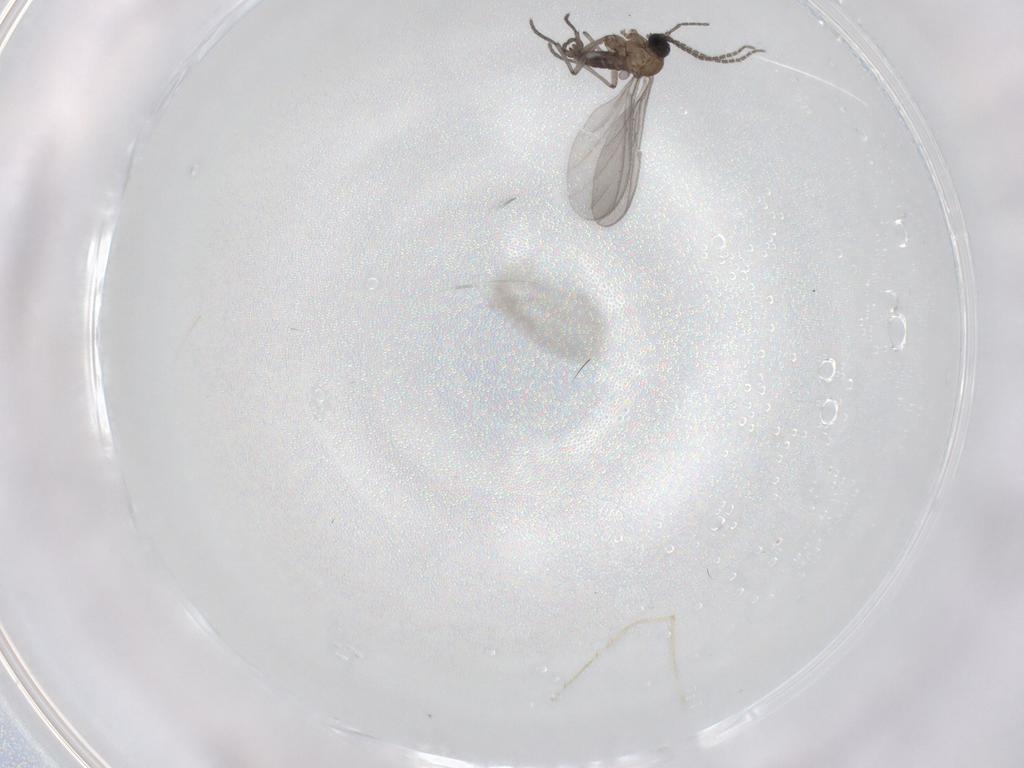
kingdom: Animalia
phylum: Arthropoda
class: Insecta
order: Diptera
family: Sciaridae
